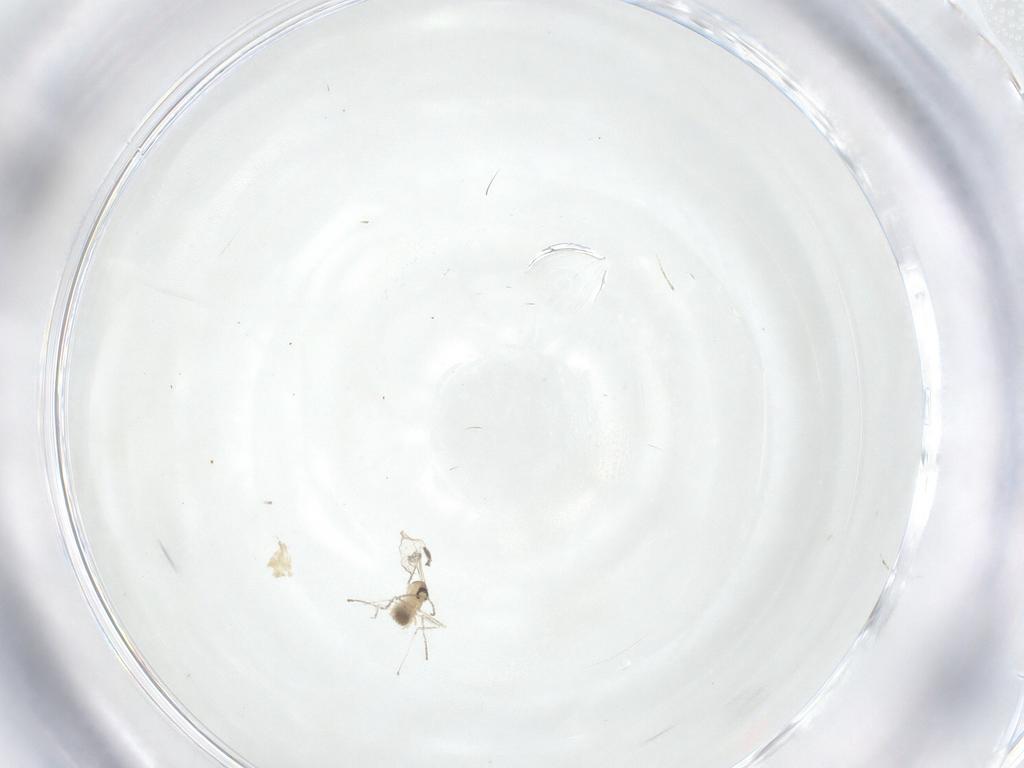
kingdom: Animalia
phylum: Arthropoda
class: Insecta
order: Diptera
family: Cecidomyiidae
